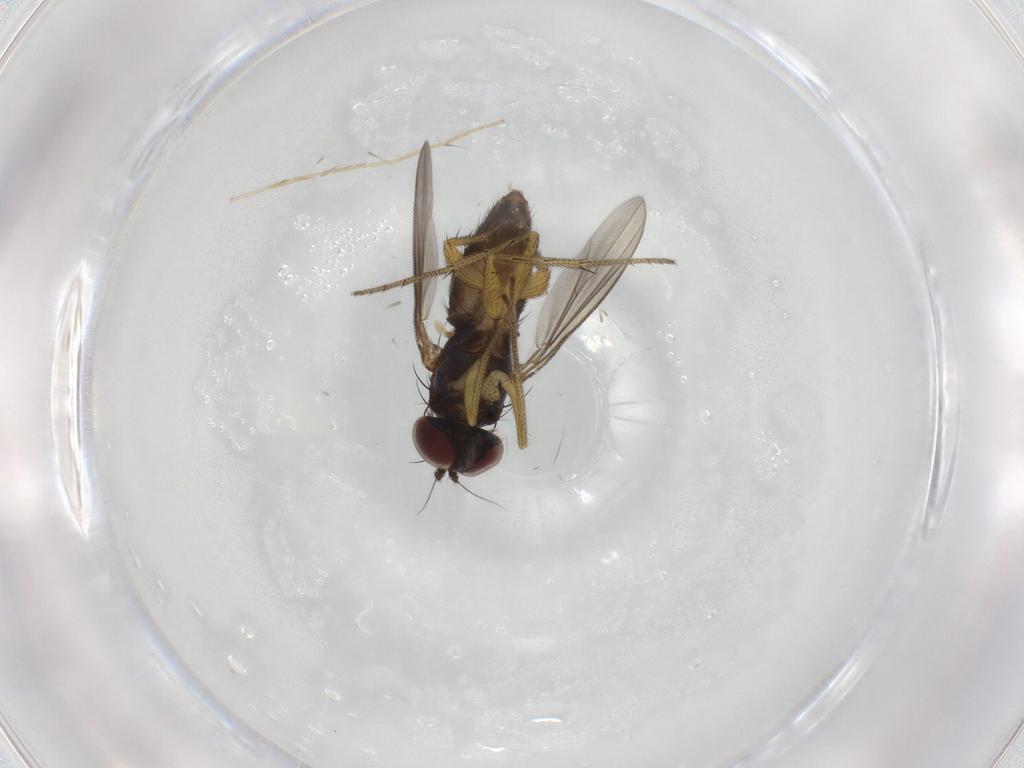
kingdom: Animalia
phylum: Arthropoda
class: Insecta
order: Diptera
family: Dolichopodidae
